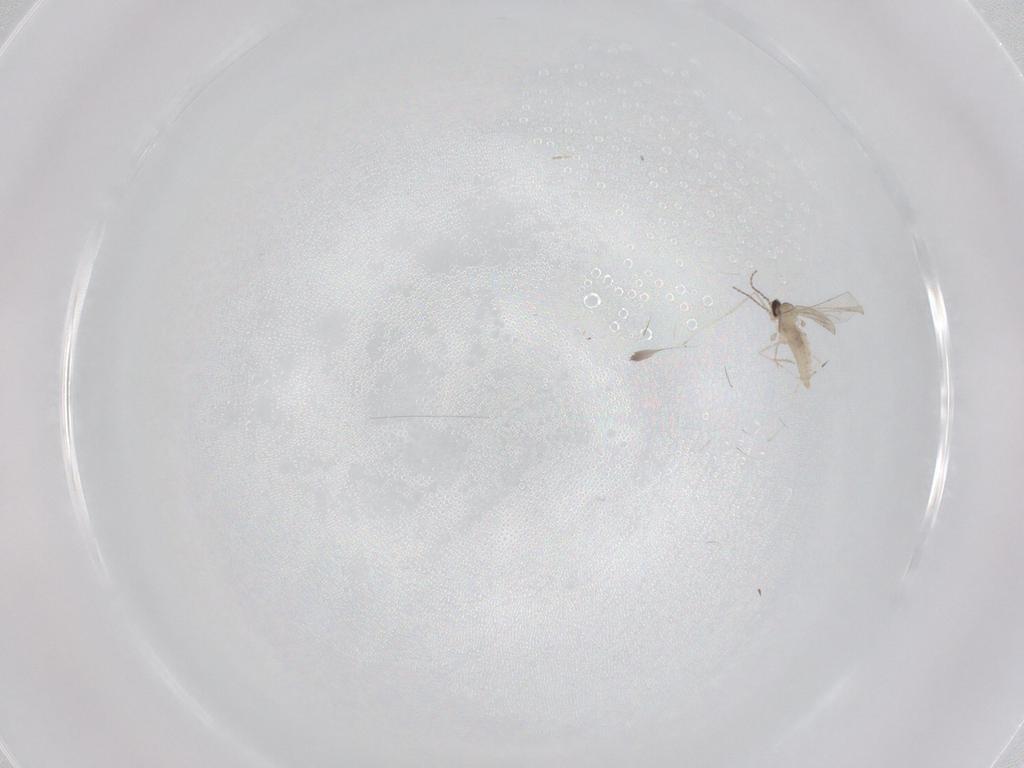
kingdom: Animalia
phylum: Arthropoda
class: Insecta
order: Diptera
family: Cecidomyiidae
